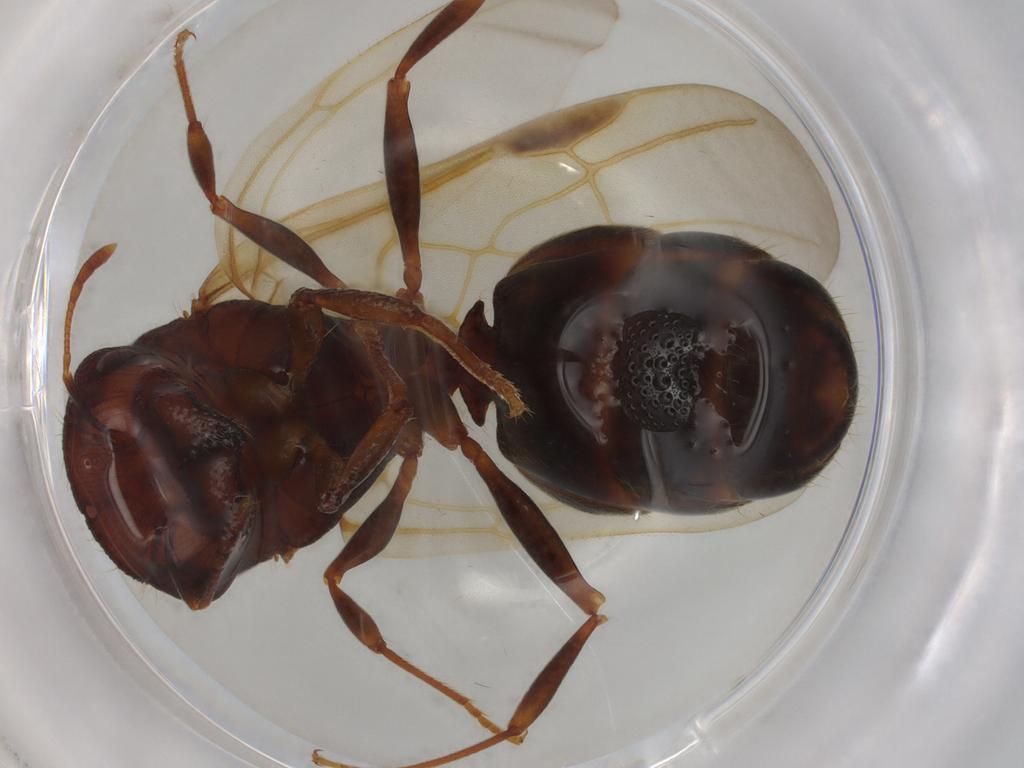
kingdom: Animalia
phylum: Arthropoda
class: Insecta
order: Hymenoptera
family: Formicidae
